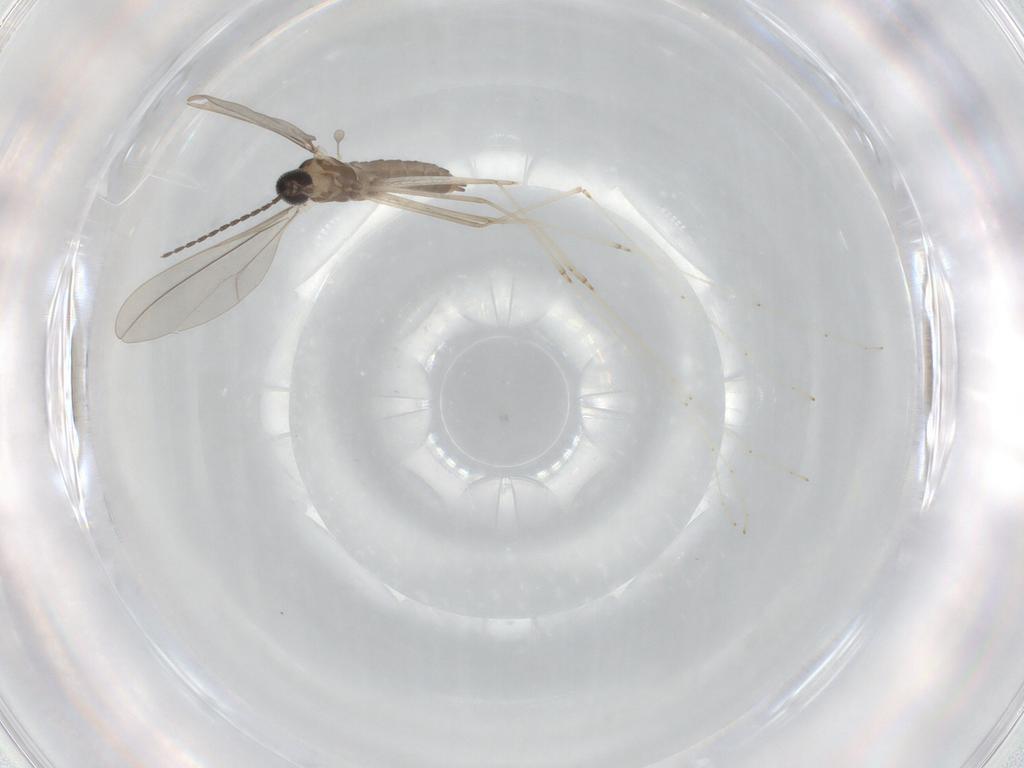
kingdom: Animalia
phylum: Arthropoda
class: Insecta
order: Diptera
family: Cecidomyiidae
